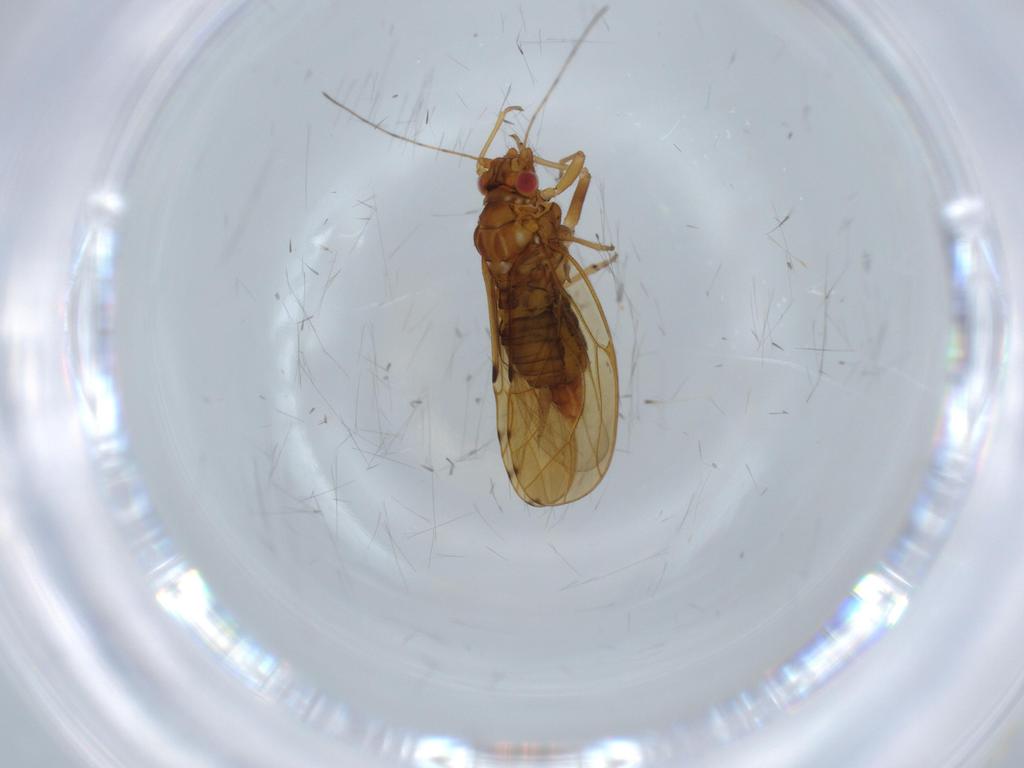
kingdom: Animalia
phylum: Arthropoda
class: Insecta
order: Hemiptera
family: Psylloidea_incertae_sedis
